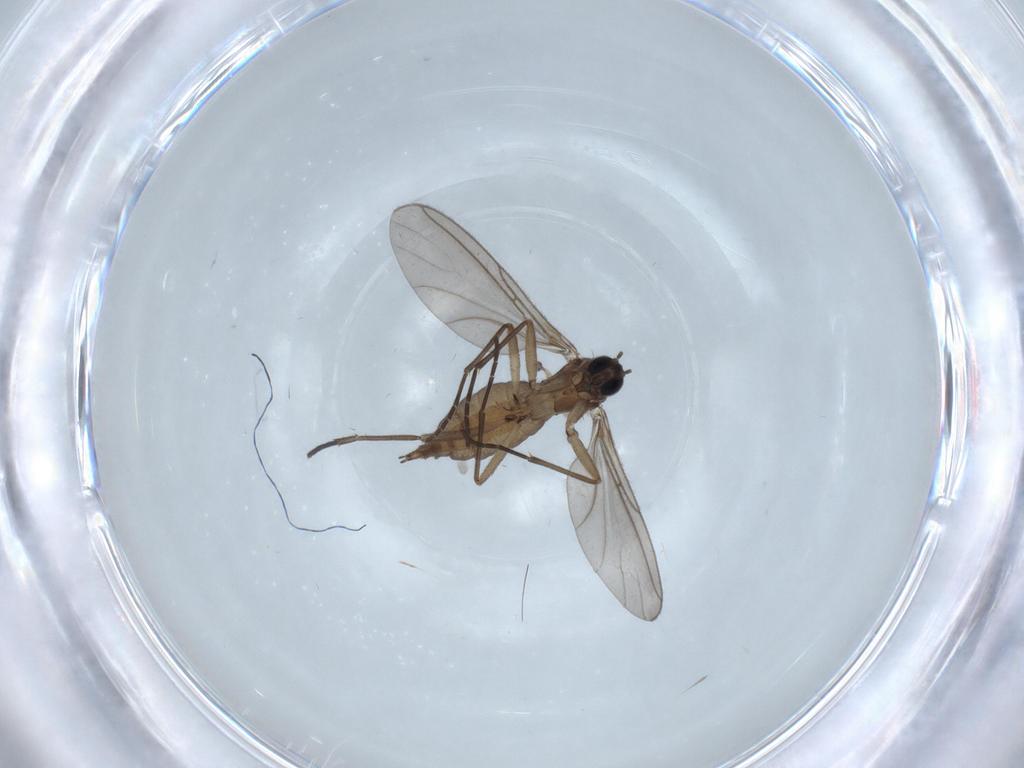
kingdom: Animalia
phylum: Arthropoda
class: Insecta
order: Diptera
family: Sciaridae
